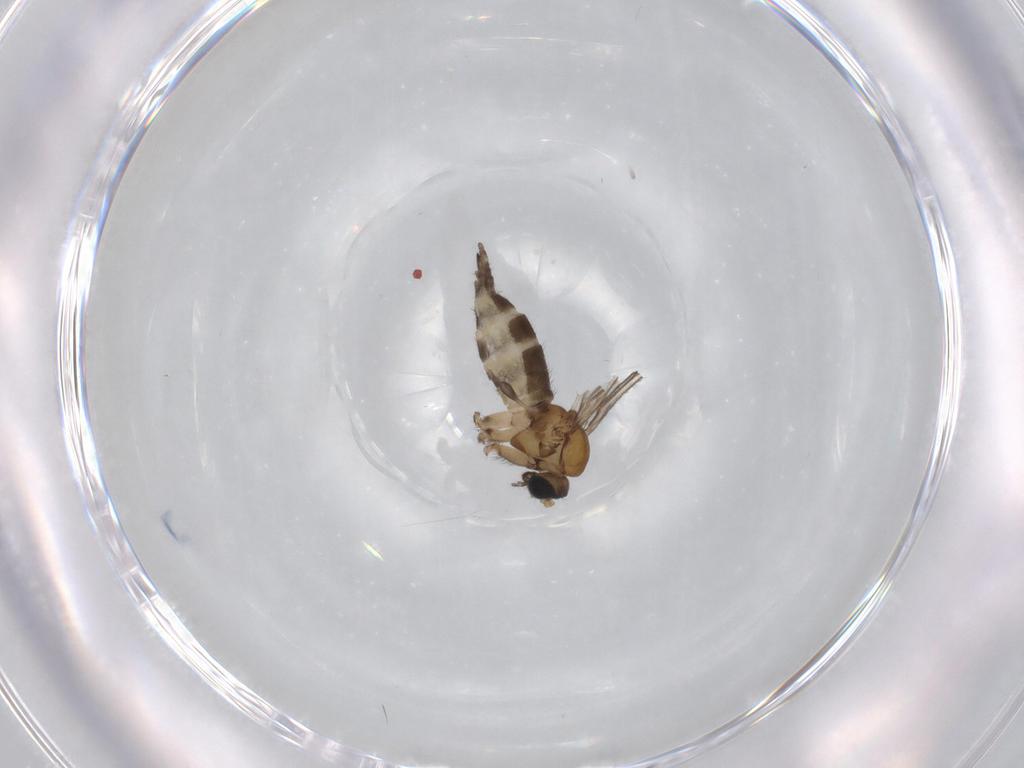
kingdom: Animalia
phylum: Arthropoda
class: Insecta
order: Diptera
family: Sciaridae
